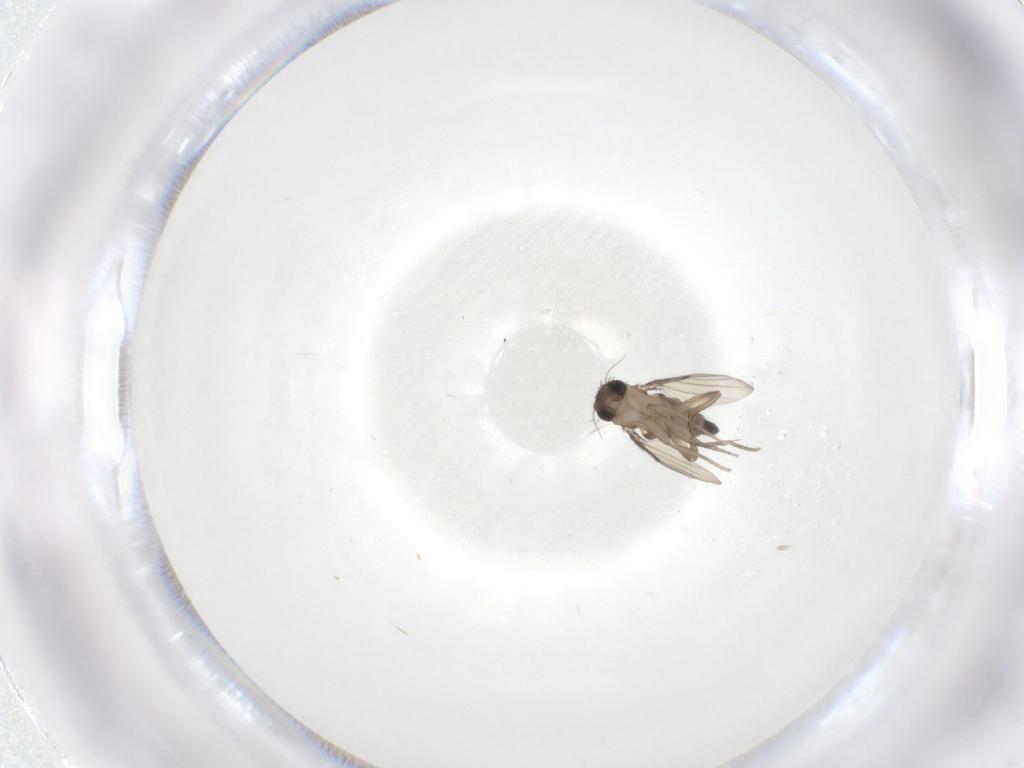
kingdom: Animalia
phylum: Arthropoda
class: Insecta
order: Diptera
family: Phoridae
